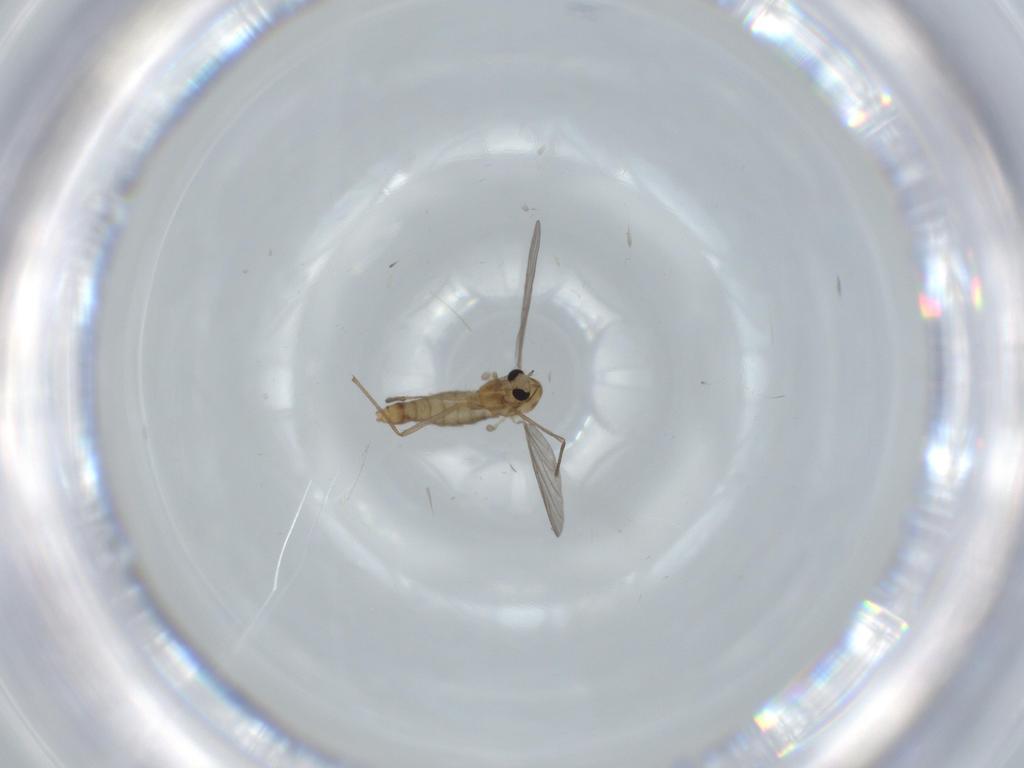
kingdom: Animalia
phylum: Arthropoda
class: Insecta
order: Diptera
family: Chironomidae
